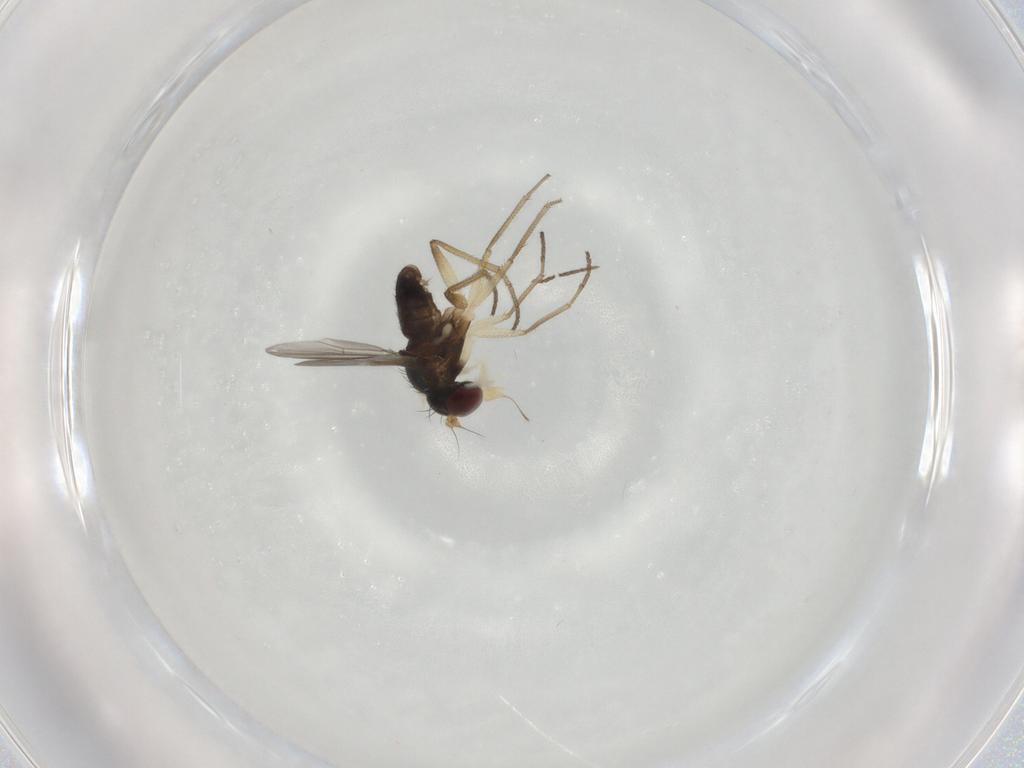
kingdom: Animalia
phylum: Arthropoda
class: Insecta
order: Diptera
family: Dolichopodidae
